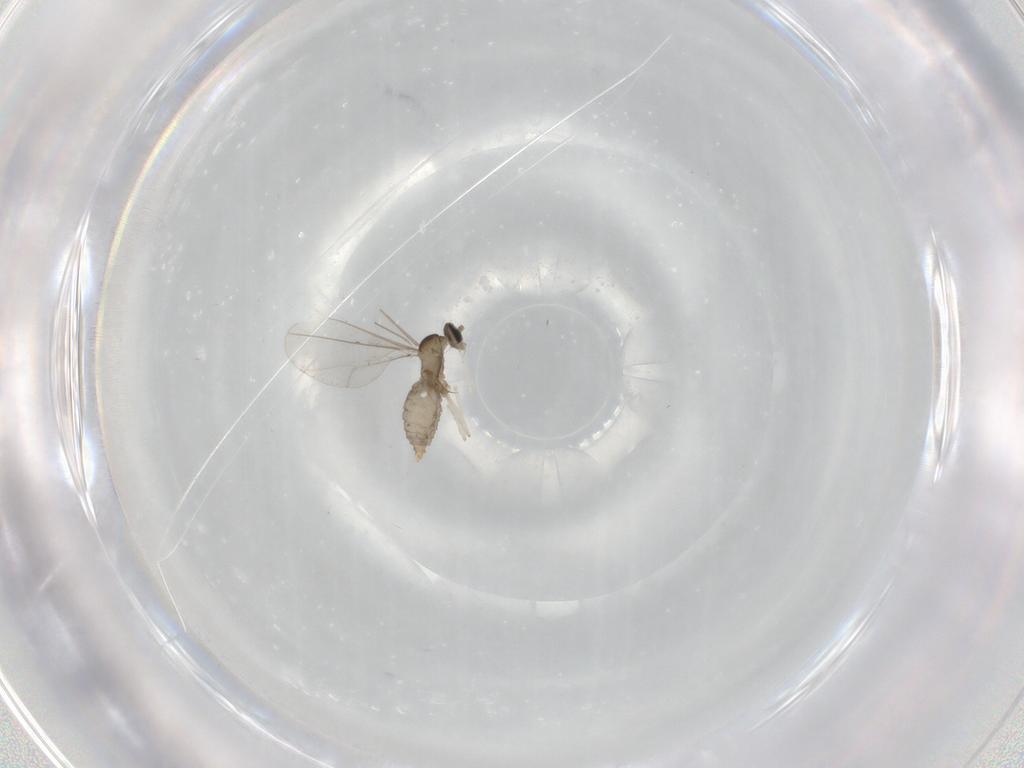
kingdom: Animalia
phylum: Arthropoda
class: Insecta
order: Diptera
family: Cecidomyiidae
